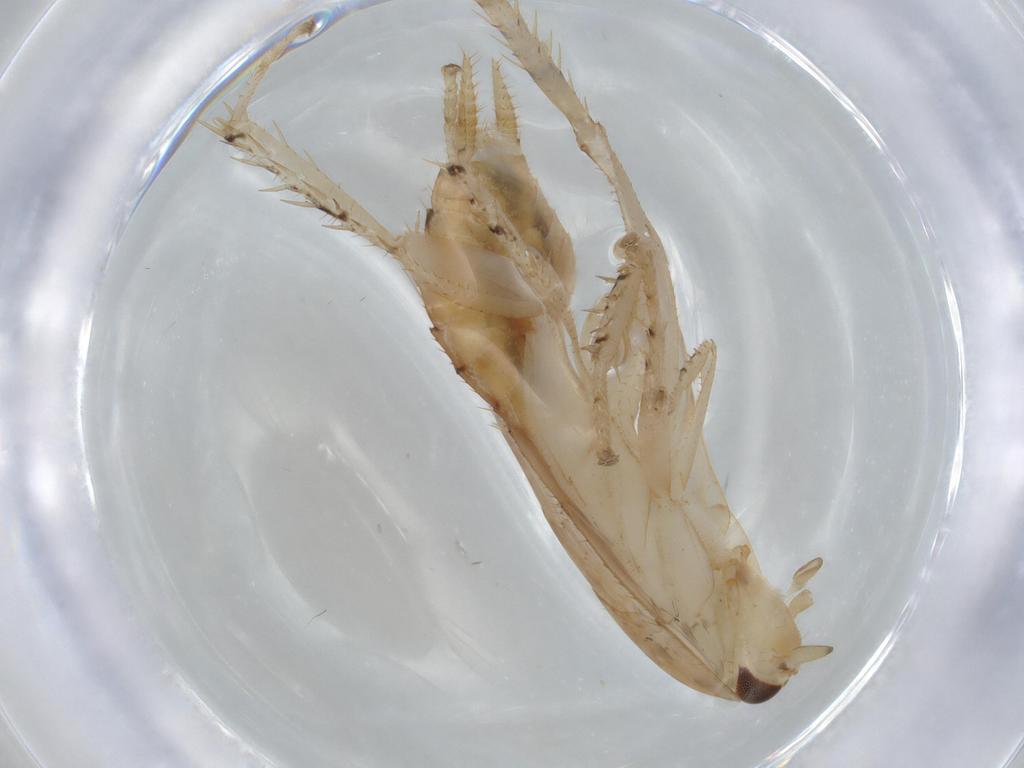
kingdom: Animalia
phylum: Arthropoda
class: Insecta
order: Blattodea
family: Ectobiidae
